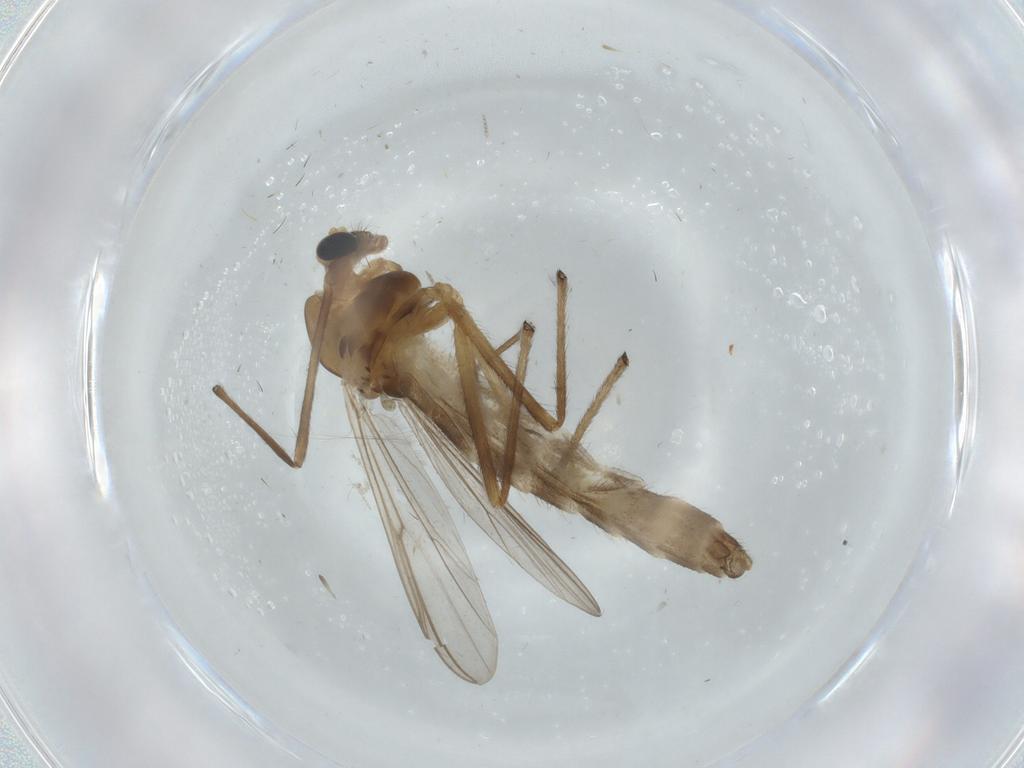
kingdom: Animalia
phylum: Arthropoda
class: Insecta
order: Diptera
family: Chironomidae
